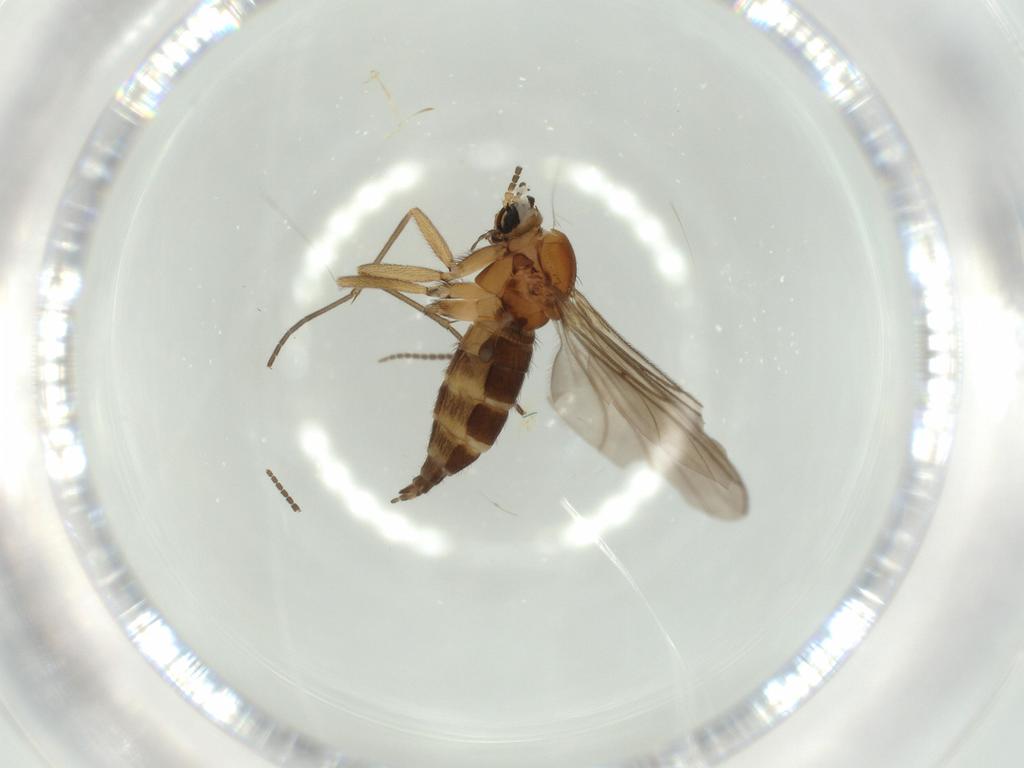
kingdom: Animalia
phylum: Arthropoda
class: Insecta
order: Diptera
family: Sciaridae
